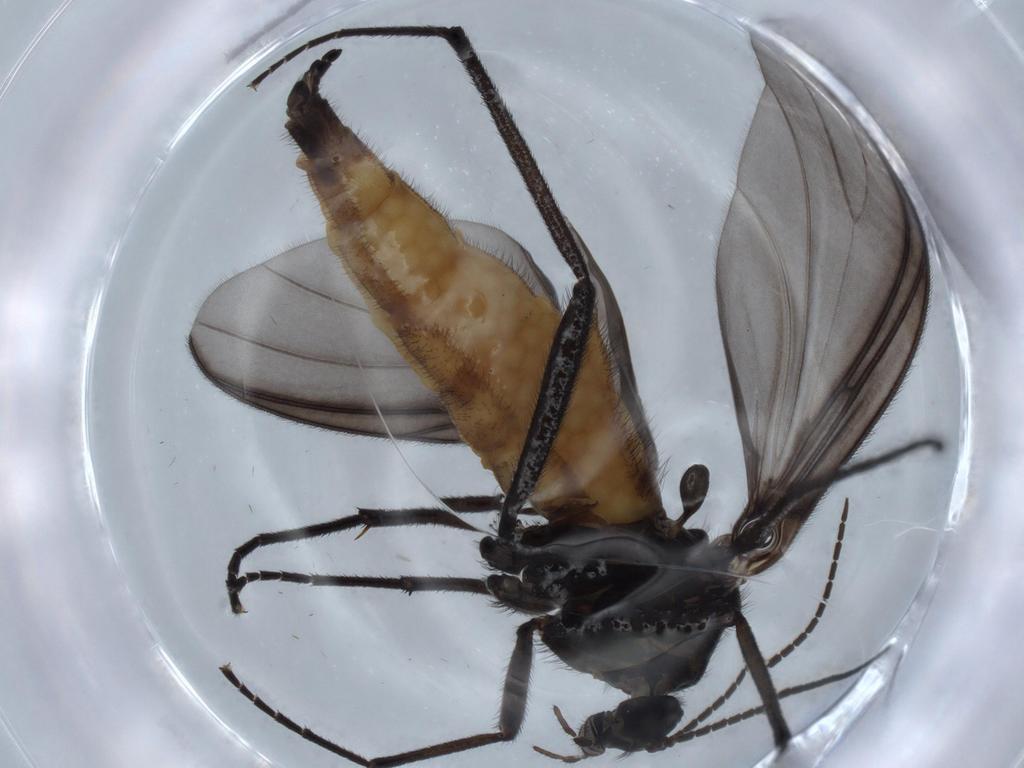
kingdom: Animalia
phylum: Arthropoda
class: Insecta
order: Diptera
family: Sciaridae
